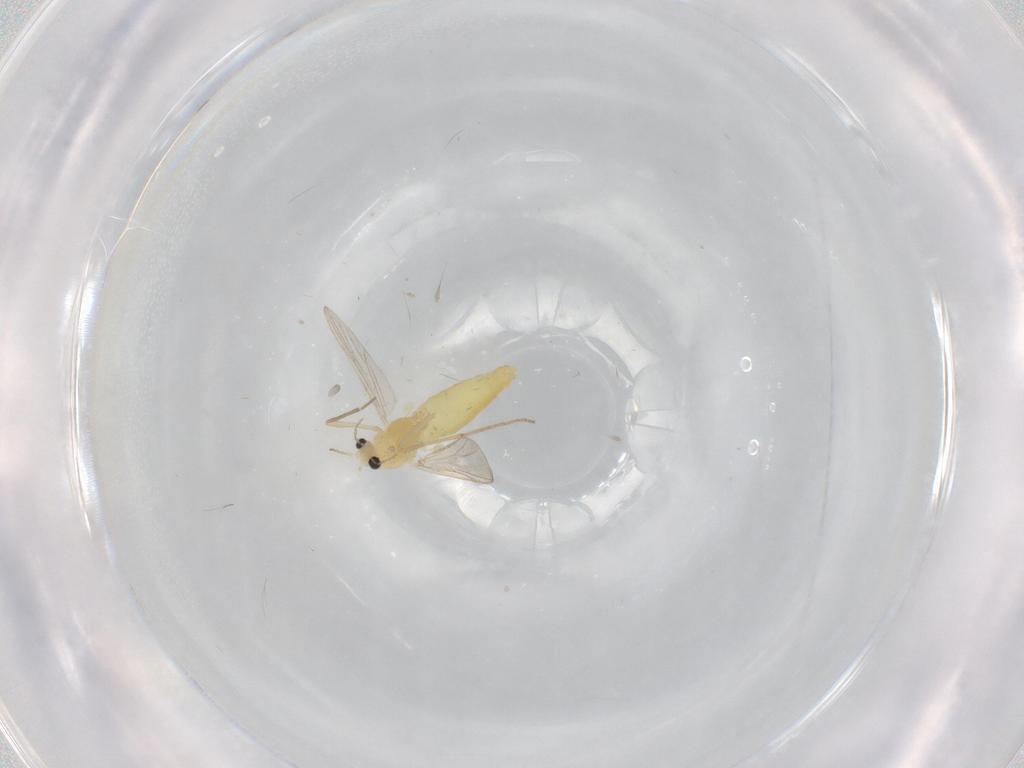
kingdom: Animalia
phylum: Arthropoda
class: Insecta
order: Diptera
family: Chironomidae
